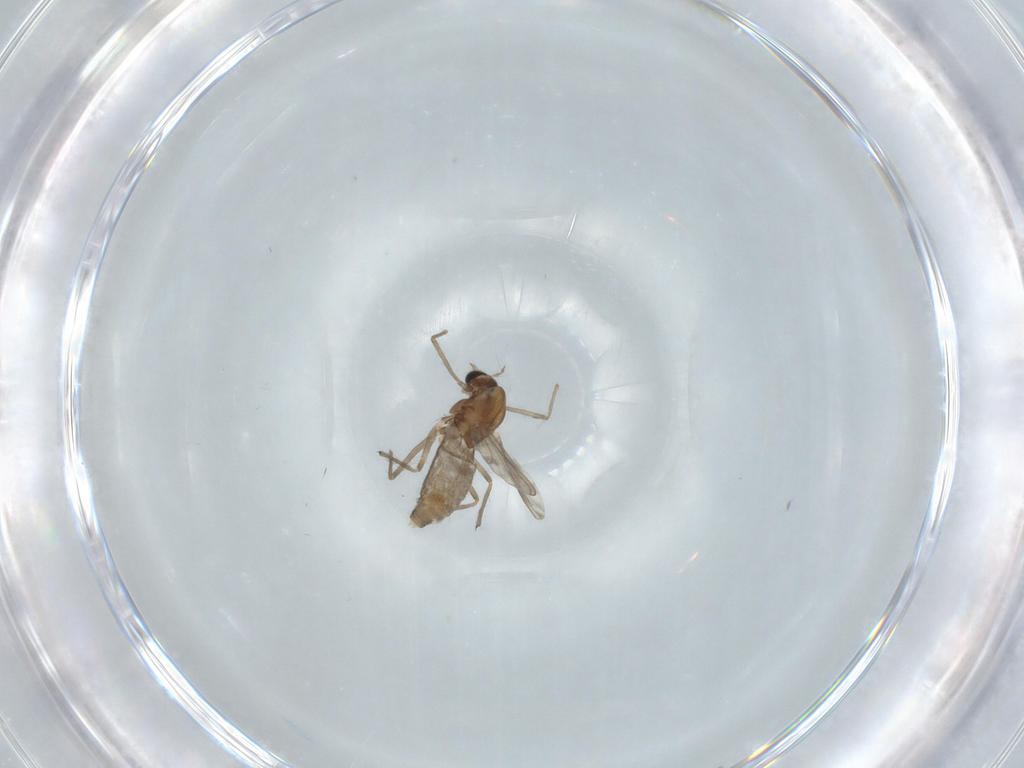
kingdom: Animalia
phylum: Arthropoda
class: Insecta
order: Diptera
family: Chironomidae
